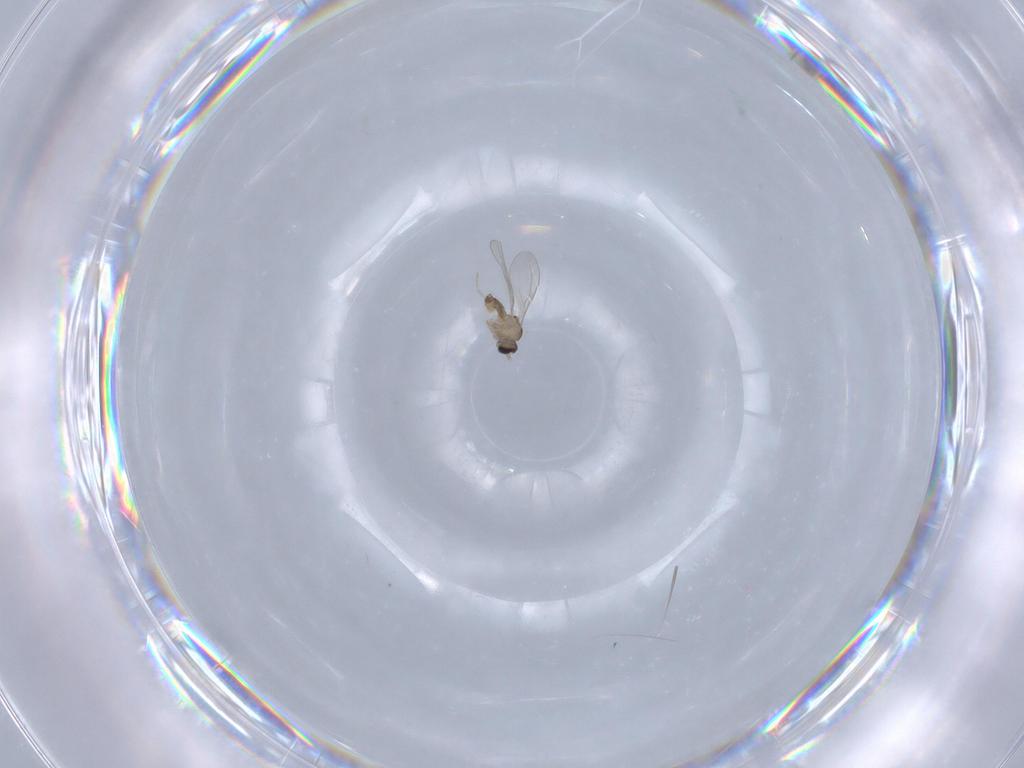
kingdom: Animalia
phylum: Arthropoda
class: Insecta
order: Diptera
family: Cecidomyiidae
